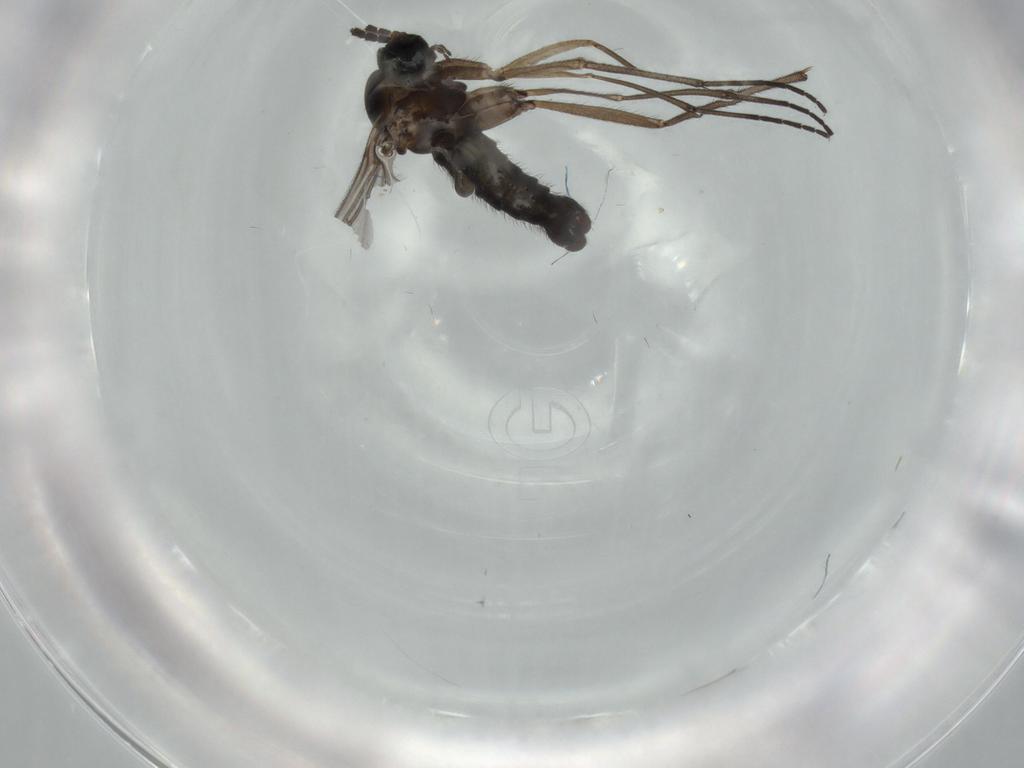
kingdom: Animalia
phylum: Arthropoda
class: Insecta
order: Diptera
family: Sciaridae
